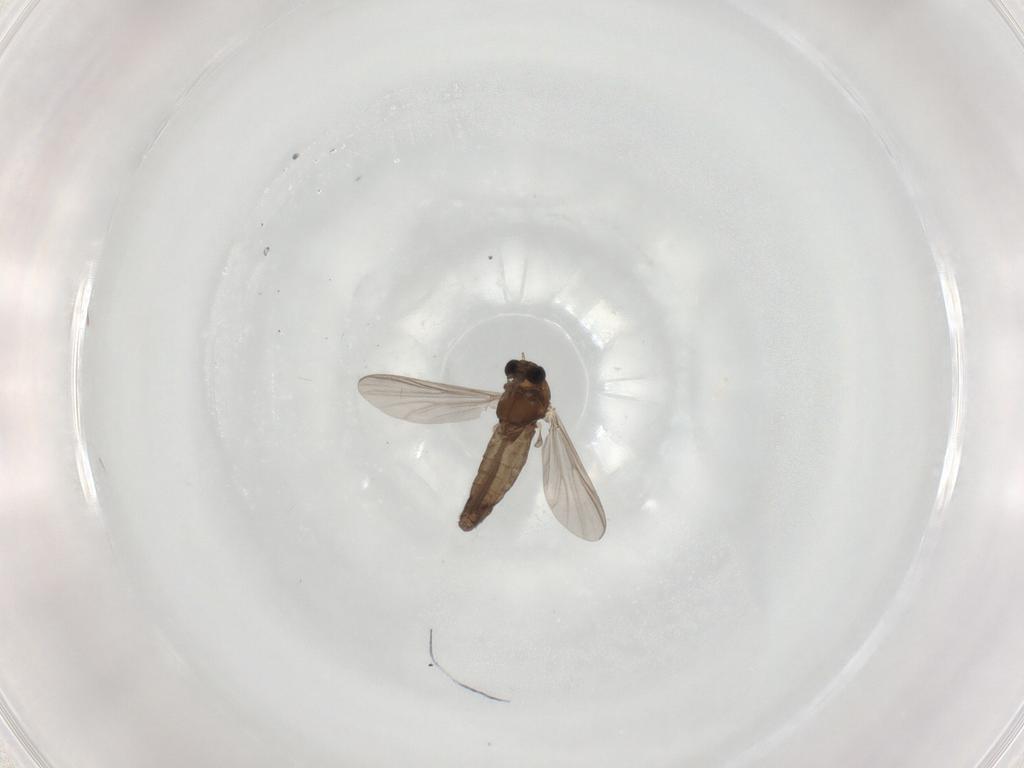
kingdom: Animalia
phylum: Arthropoda
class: Insecta
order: Diptera
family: Chironomidae
